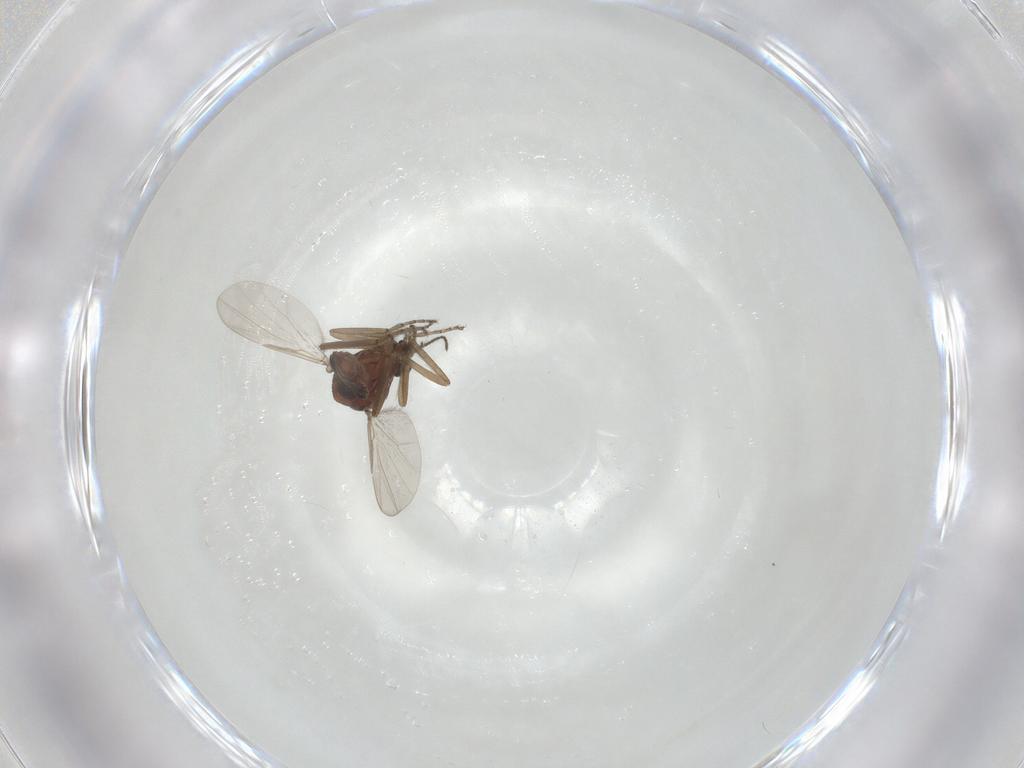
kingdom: Animalia
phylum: Arthropoda
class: Insecta
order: Diptera
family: Ceratopogonidae
